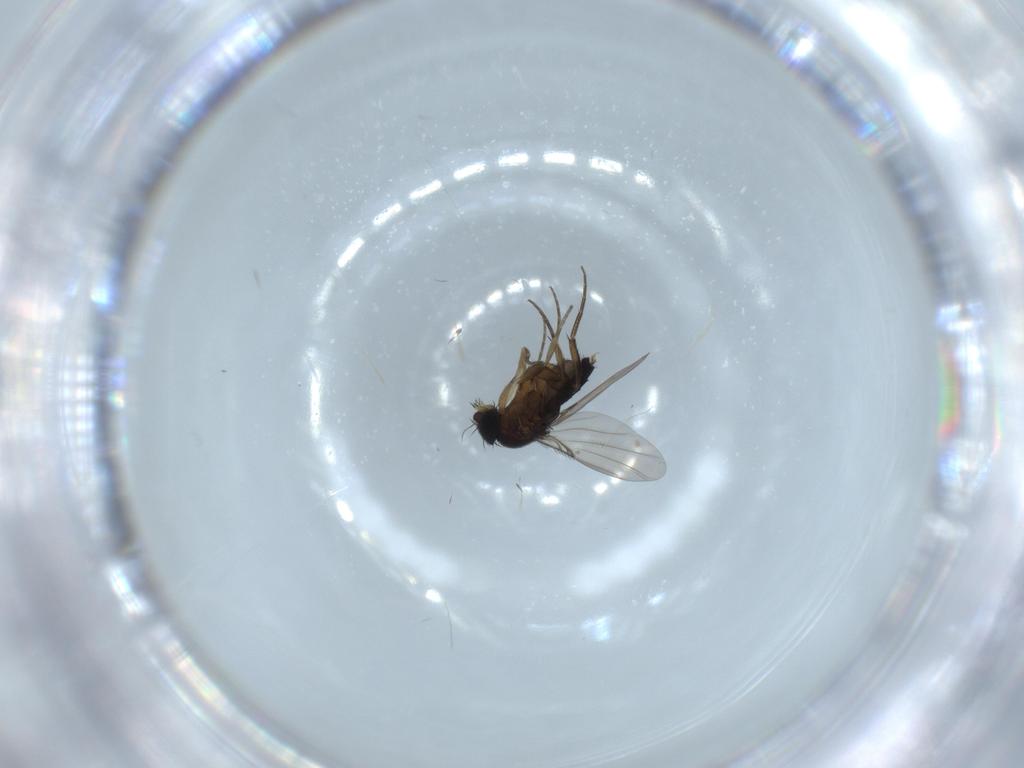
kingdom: Animalia
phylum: Arthropoda
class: Insecta
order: Diptera
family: Phoridae
